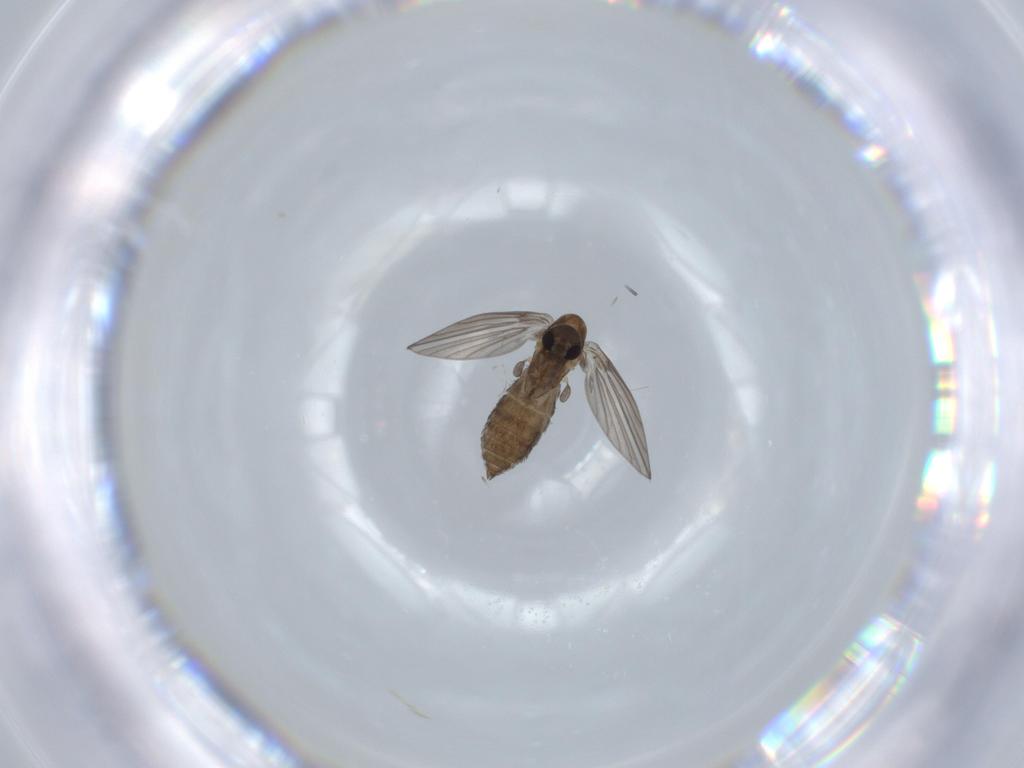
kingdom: Animalia
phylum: Arthropoda
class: Insecta
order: Diptera
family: Psychodidae
